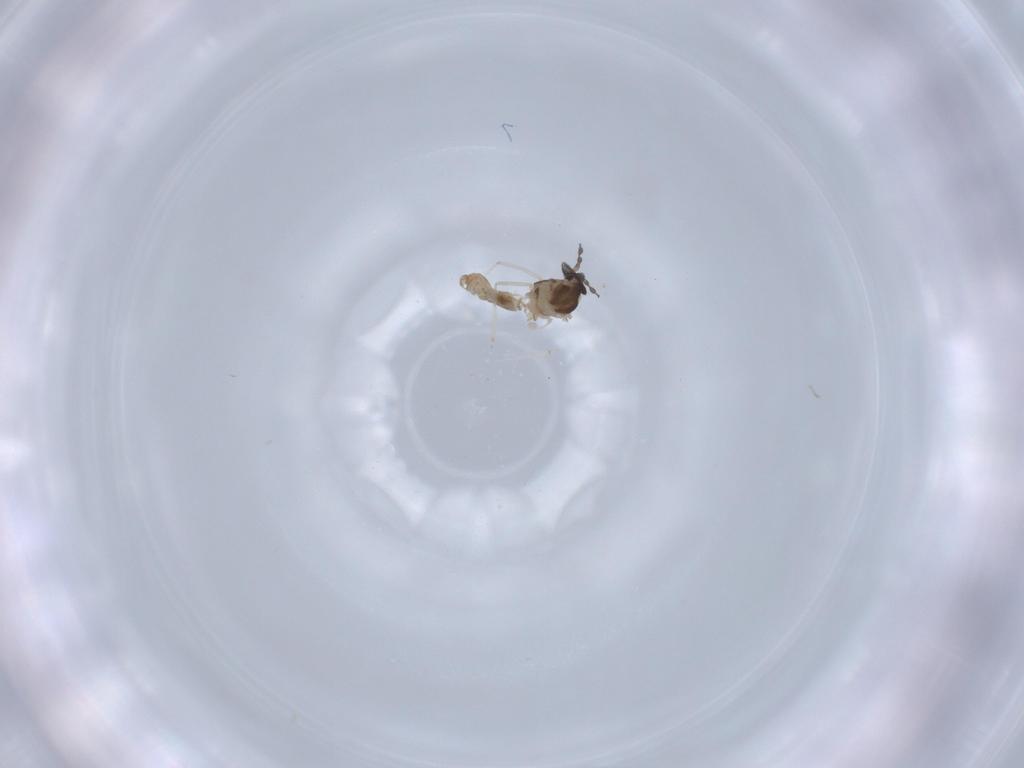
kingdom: Animalia
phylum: Arthropoda
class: Insecta
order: Diptera
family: Cecidomyiidae
